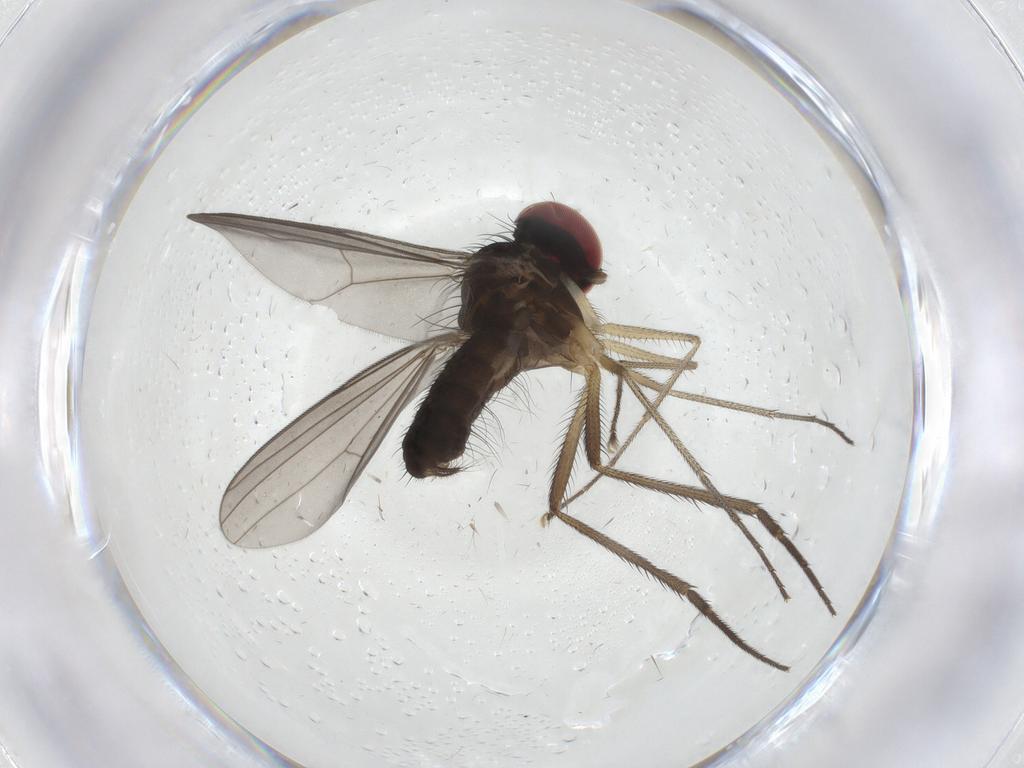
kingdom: Animalia
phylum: Arthropoda
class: Insecta
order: Diptera
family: Dolichopodidae
